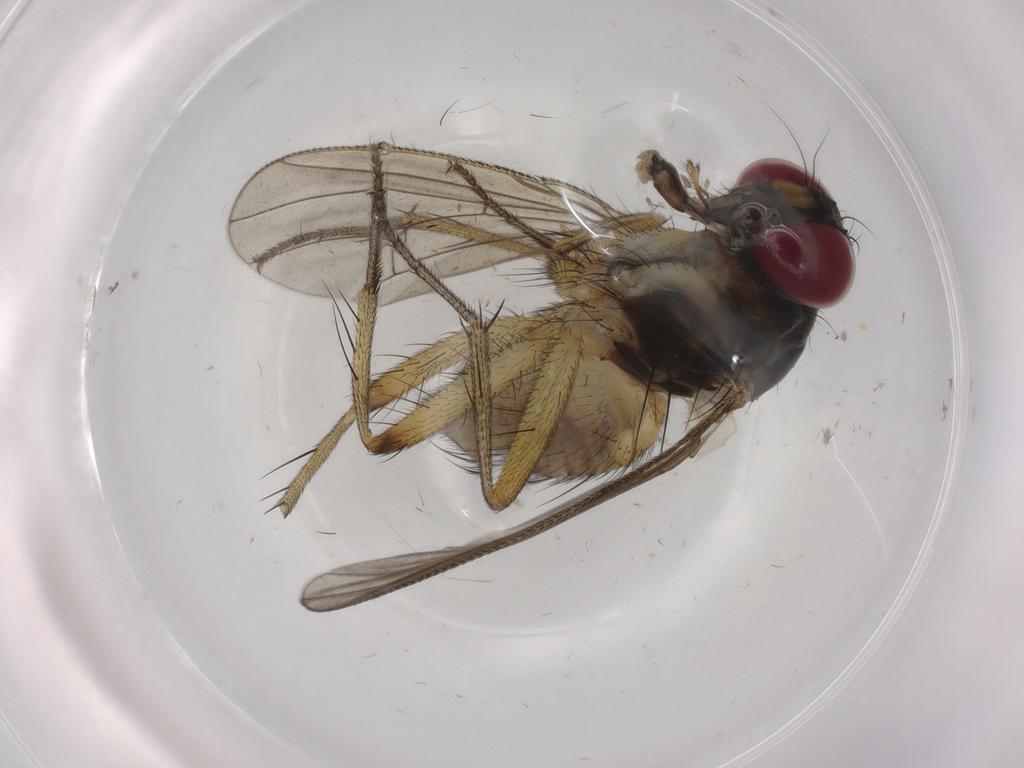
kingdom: Animalia
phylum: Arthropoda
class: Insecta
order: Diptera
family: Muscidae
